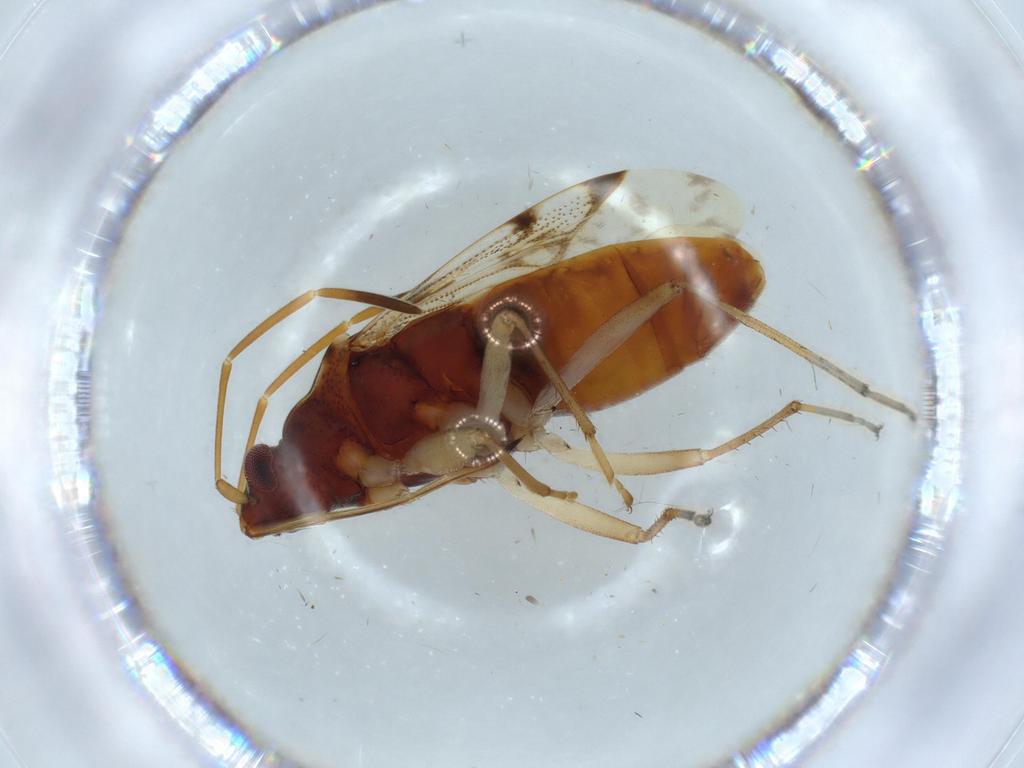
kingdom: Animalia
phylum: Arthropoda
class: Insecta
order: Hemiptera
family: Rhyparochromidae
